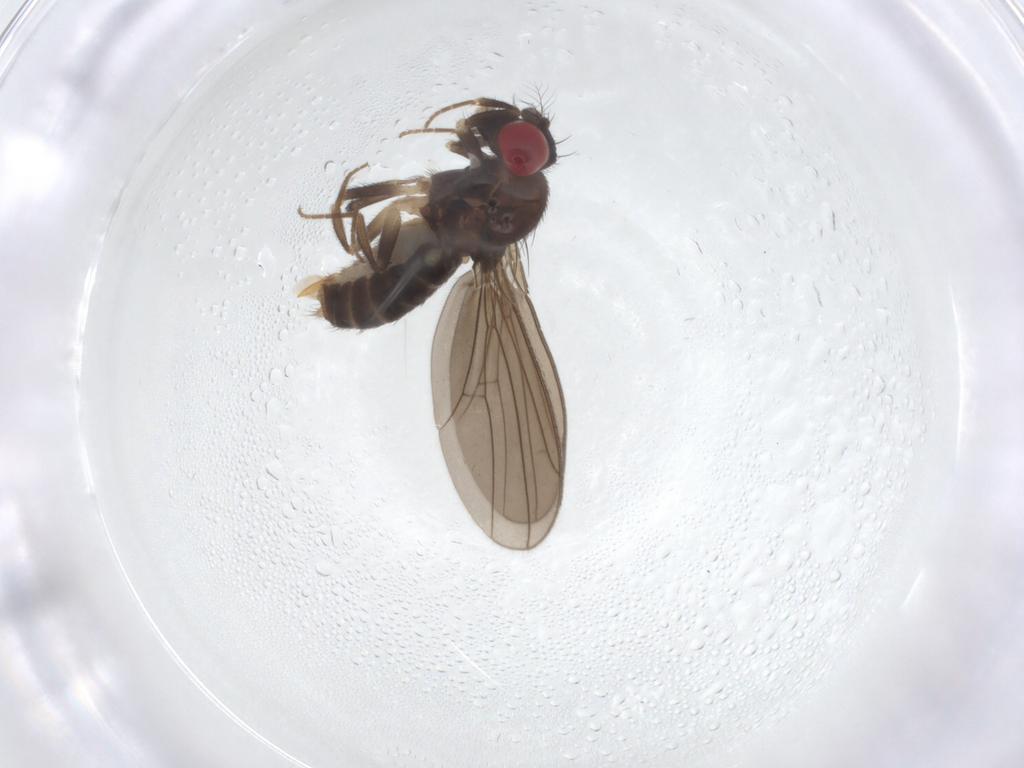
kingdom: Animalia
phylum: Arthropoda
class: Insecta
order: Diptera
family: Drosophilidae
